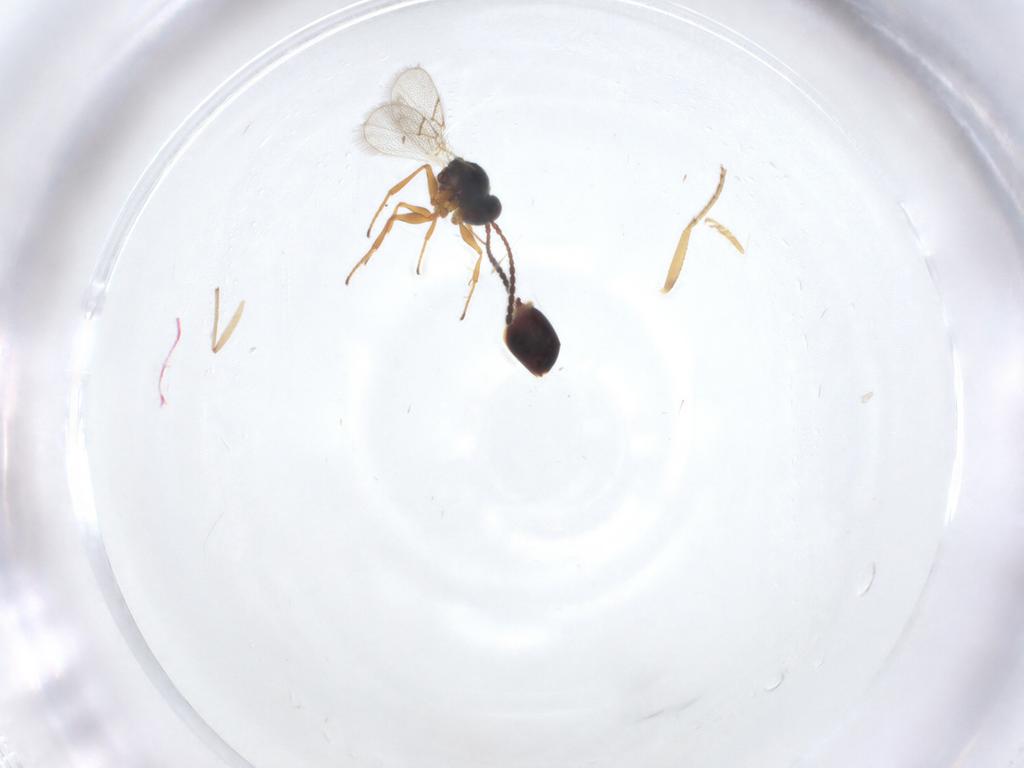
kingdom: Animalia
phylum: Arthropoda
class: Insecta
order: Hymenoptera
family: Figitidae
